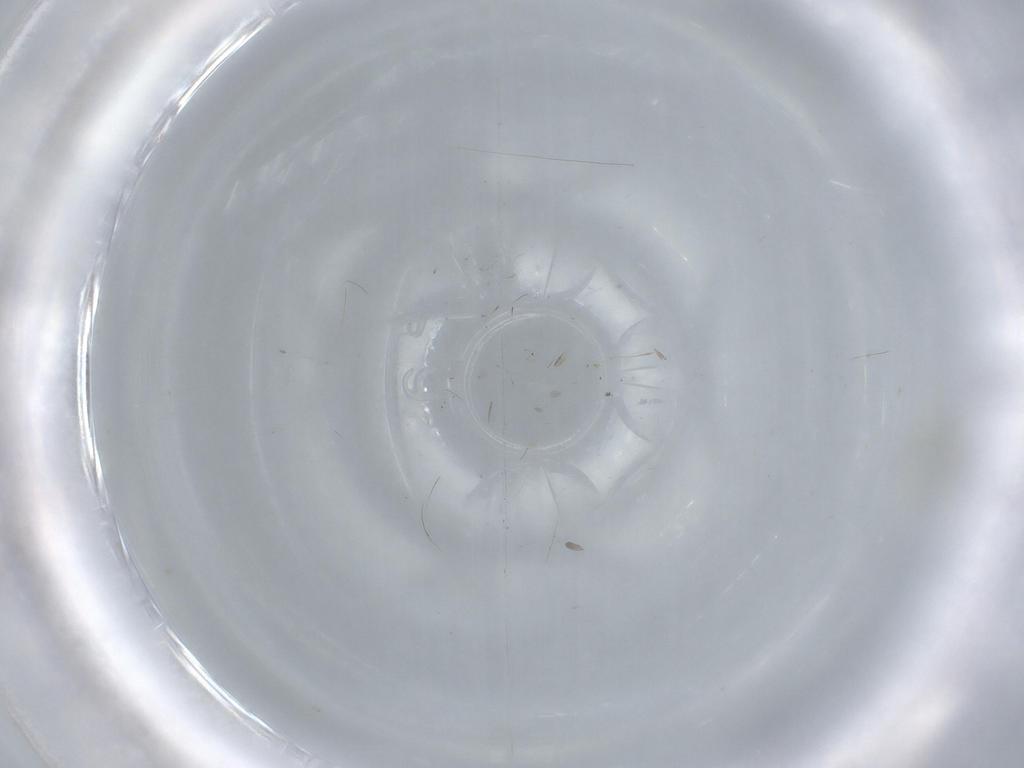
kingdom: Animalia
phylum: Arthropoda
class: Insecta
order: Diptera
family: Cecidomyiidae
